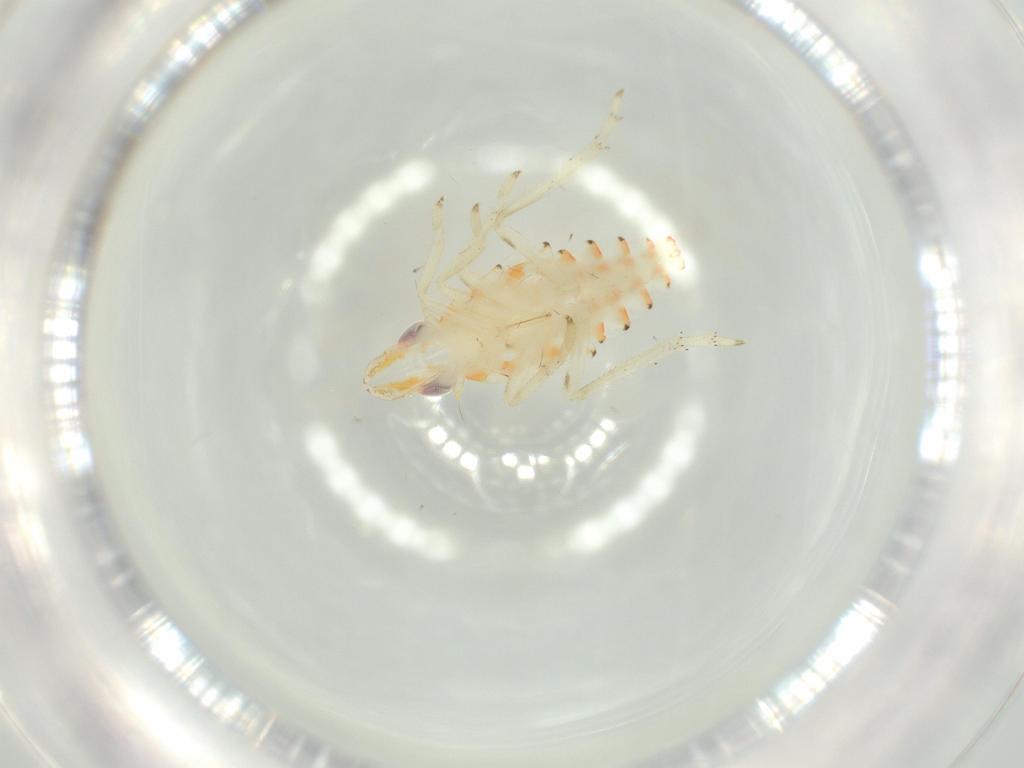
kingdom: Animalia
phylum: Arthropoda
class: Insecta
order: Hemiptera
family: Tropiduchidae
